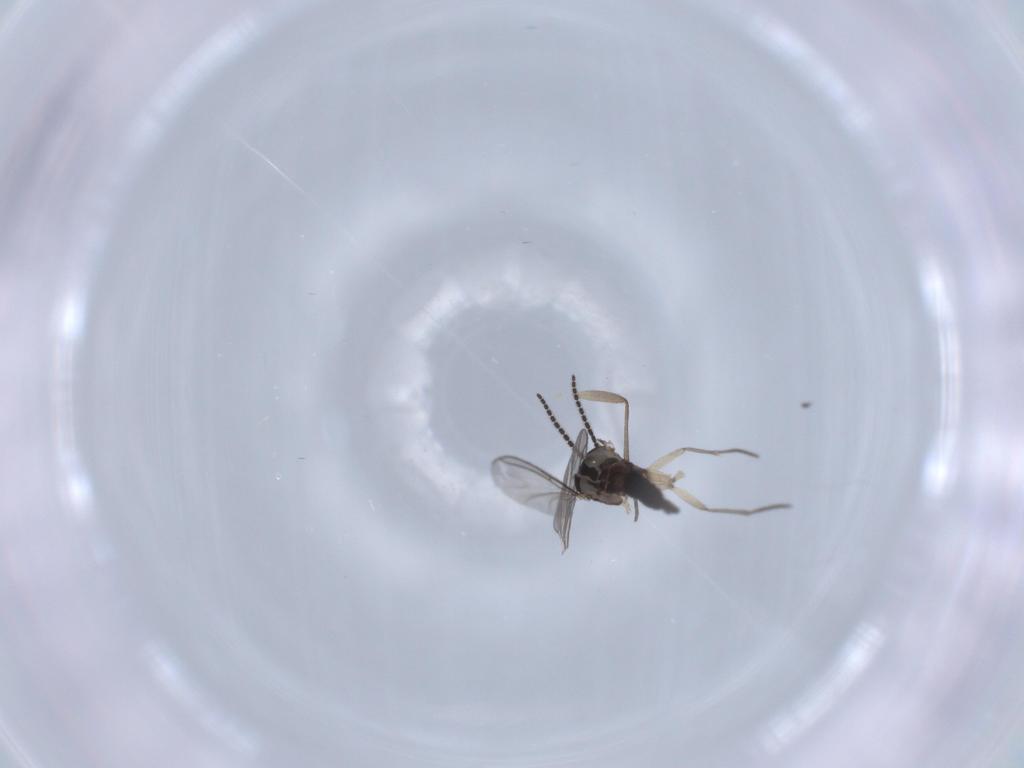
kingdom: Animalia
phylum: Arthropoda
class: Insecta
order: Diptera
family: Sciaridae
